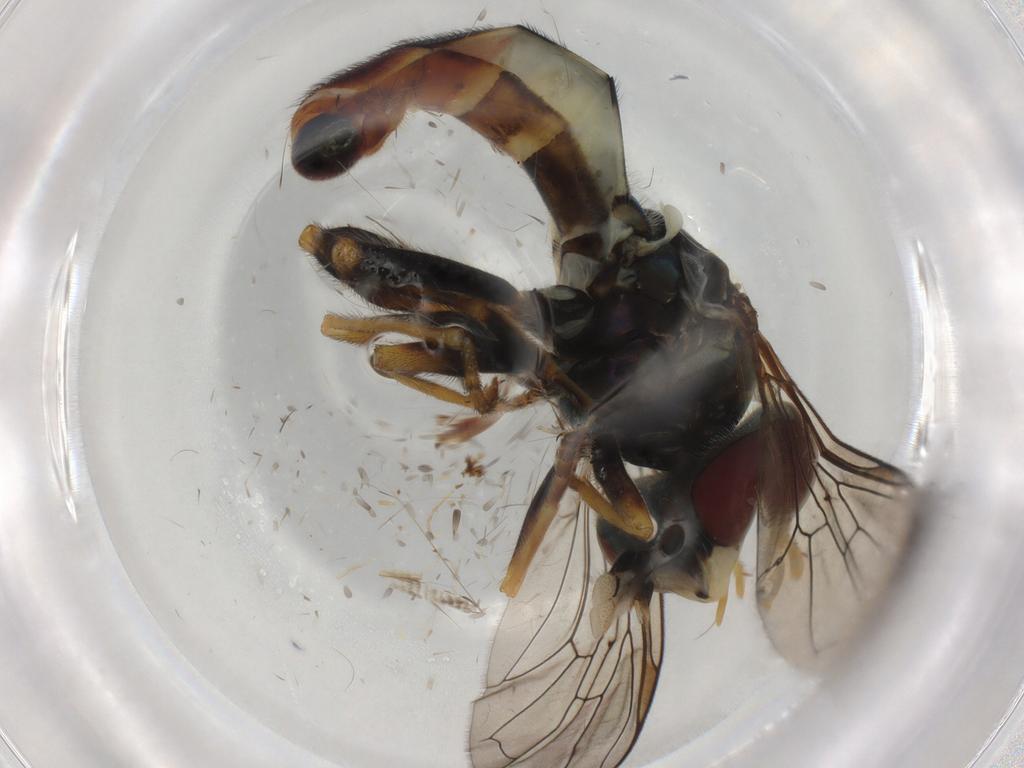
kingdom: Animalia
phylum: Arthropoda
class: Insecta
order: Diptera
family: Syrphidae
